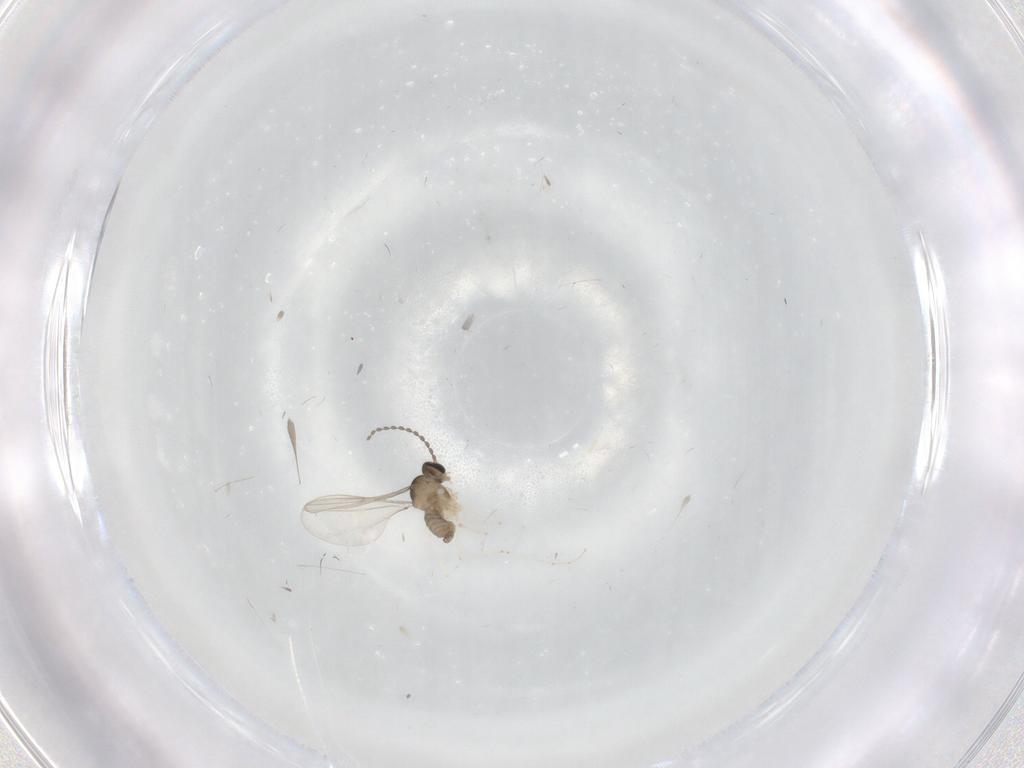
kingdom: Animalia
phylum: Arthropoda
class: Insecta
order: Diptera
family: Cecidomyiidae
